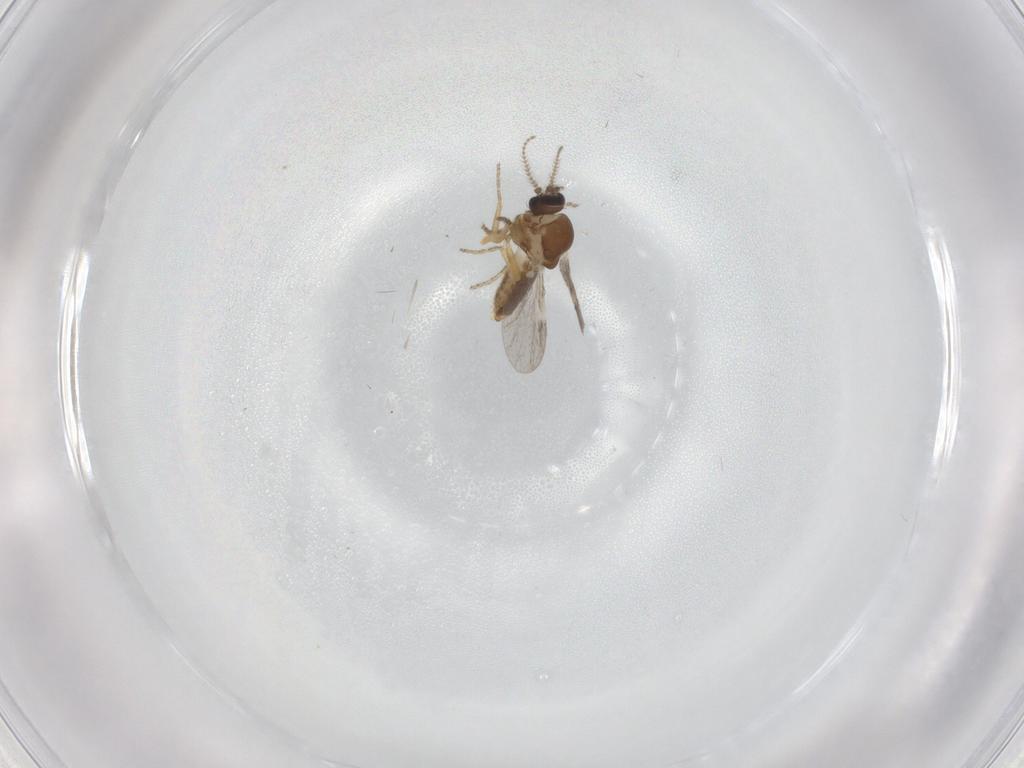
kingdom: Animalia
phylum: Arthropoda
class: Insecta
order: Diptera
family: Ceratopogonidae
